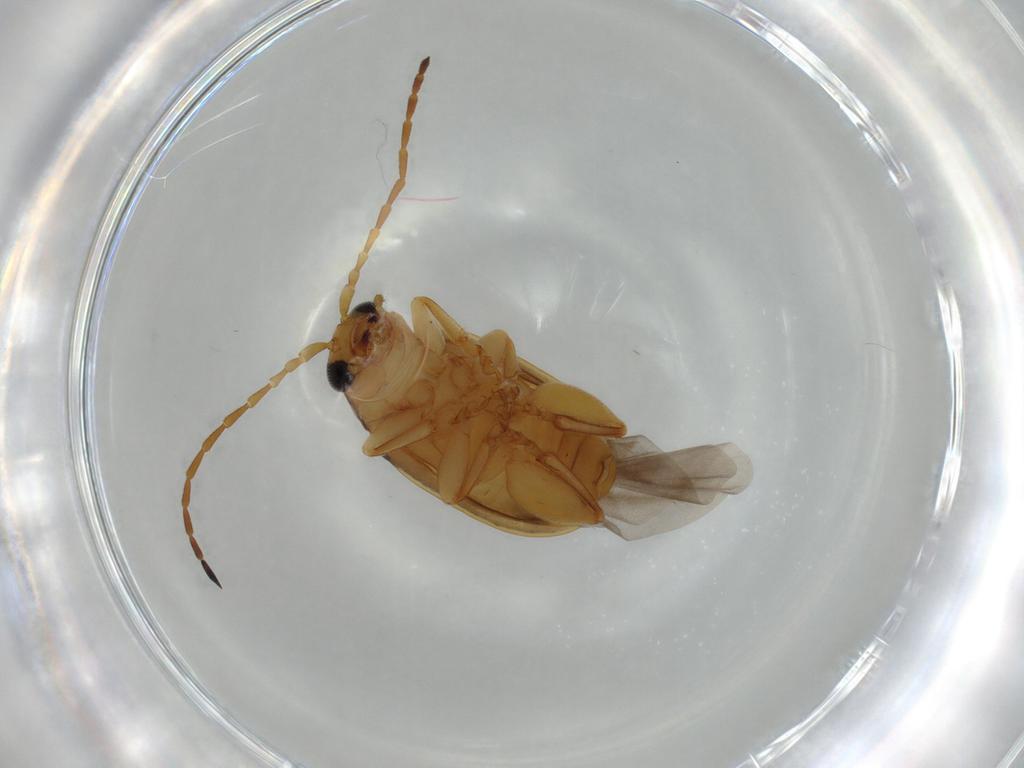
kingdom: Animalia
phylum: Arthropoda
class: Insecta
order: Coleoptera
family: Chrysomelidae
